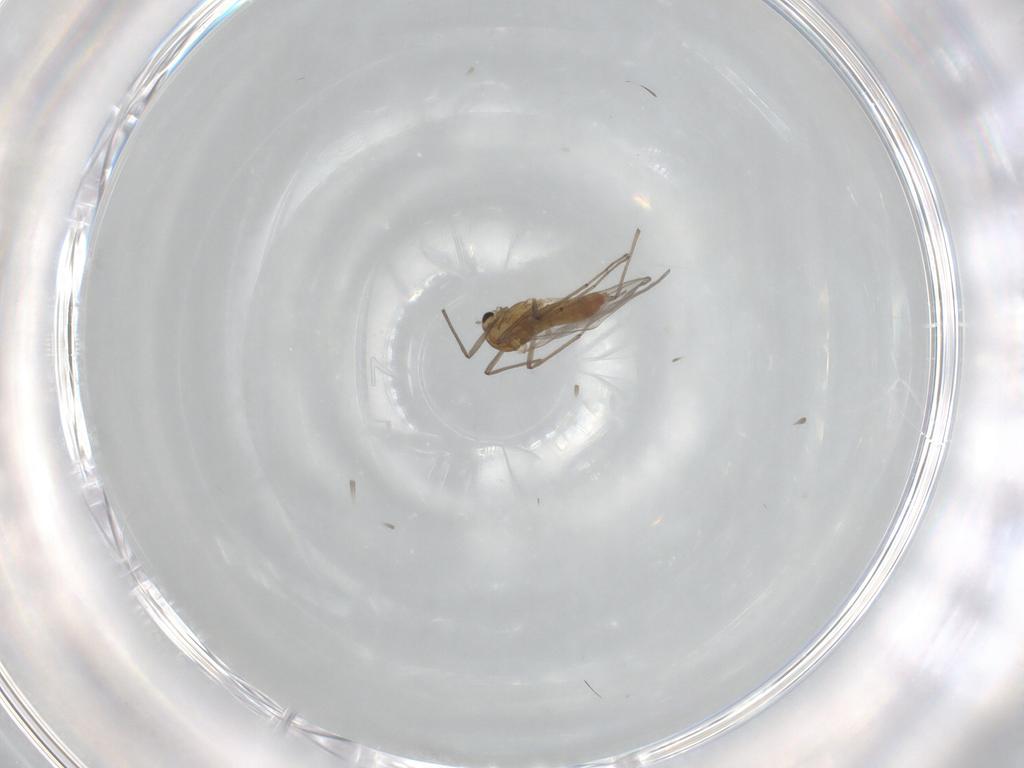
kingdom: Animalia
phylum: Arthropoda
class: Insecta
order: Diptera
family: Chironomidae
